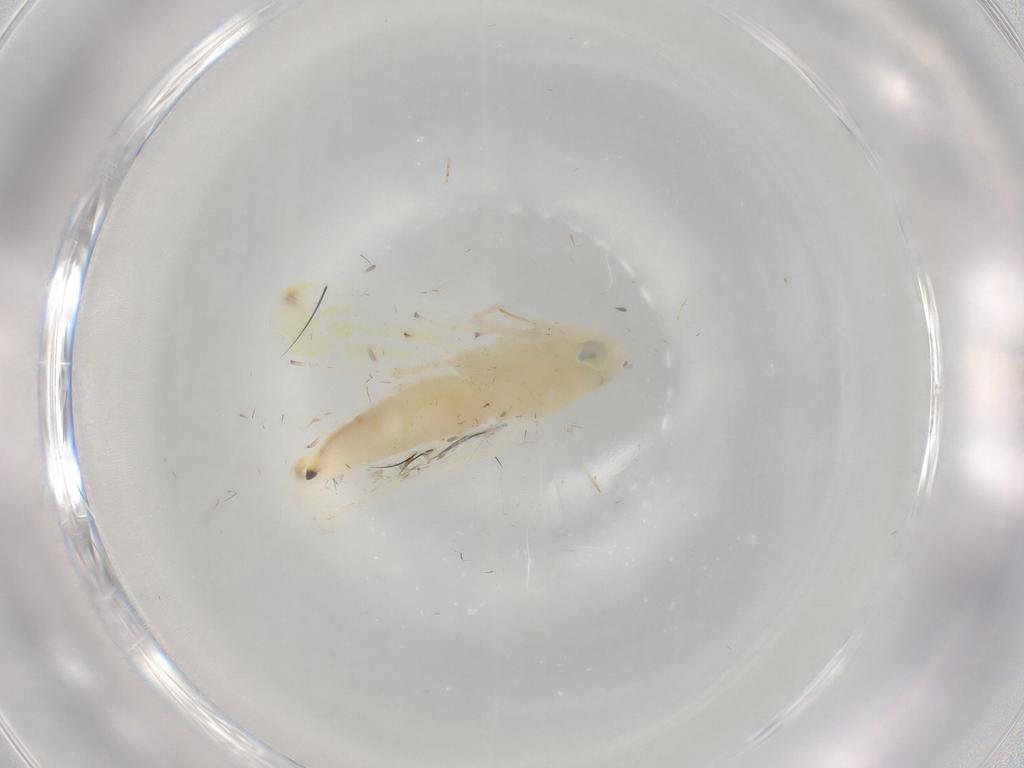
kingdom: Animalia
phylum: Arthropoda
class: Insecta
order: Hemiptera
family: Cicadellidae
